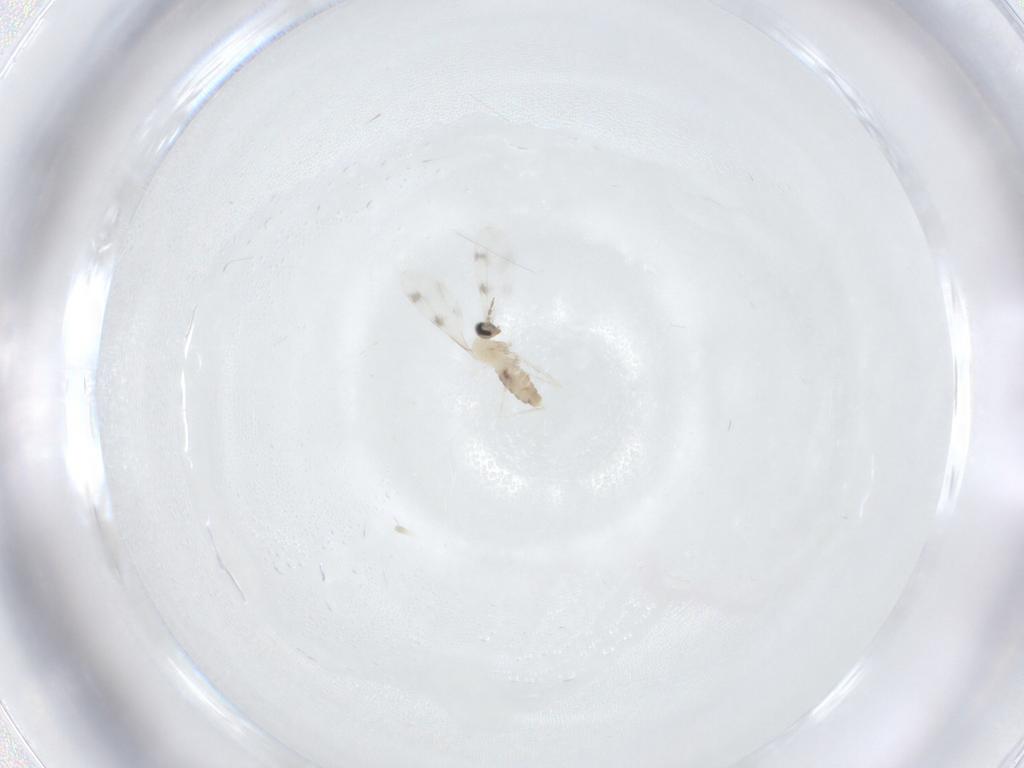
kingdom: Animalia
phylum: Arthropoda
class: Insecta
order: Diptera
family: Cecidomyiidae
